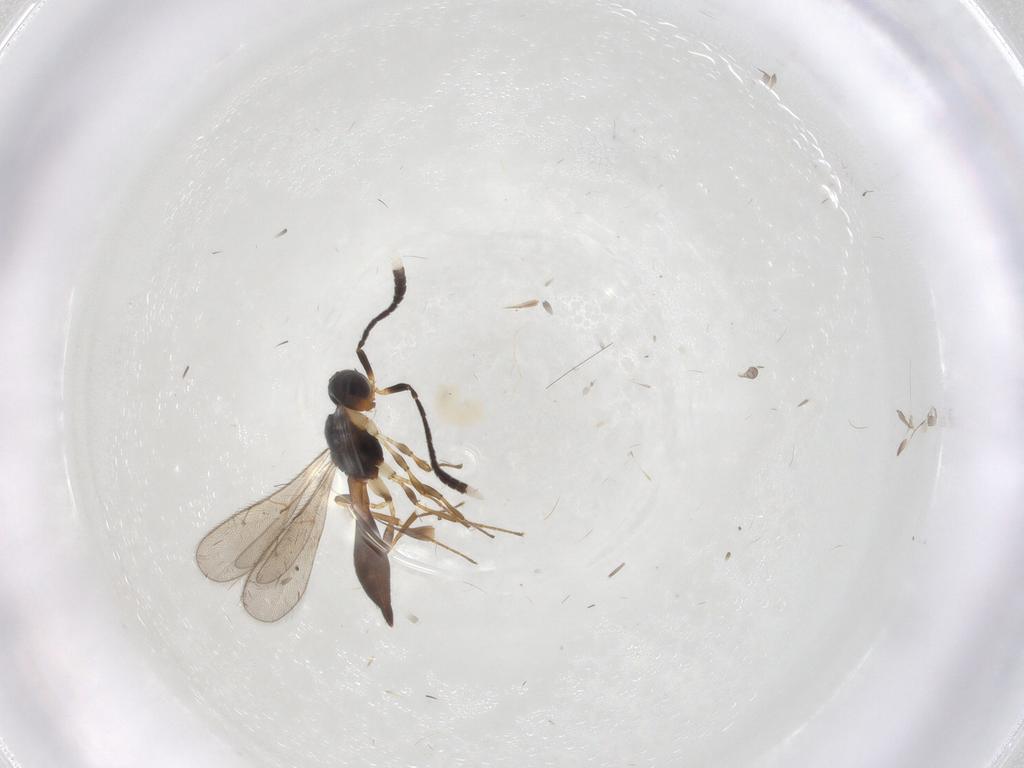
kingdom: Animalia
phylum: Arthropoda
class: Insecta
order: Hymenoptera
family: Scelionidae
